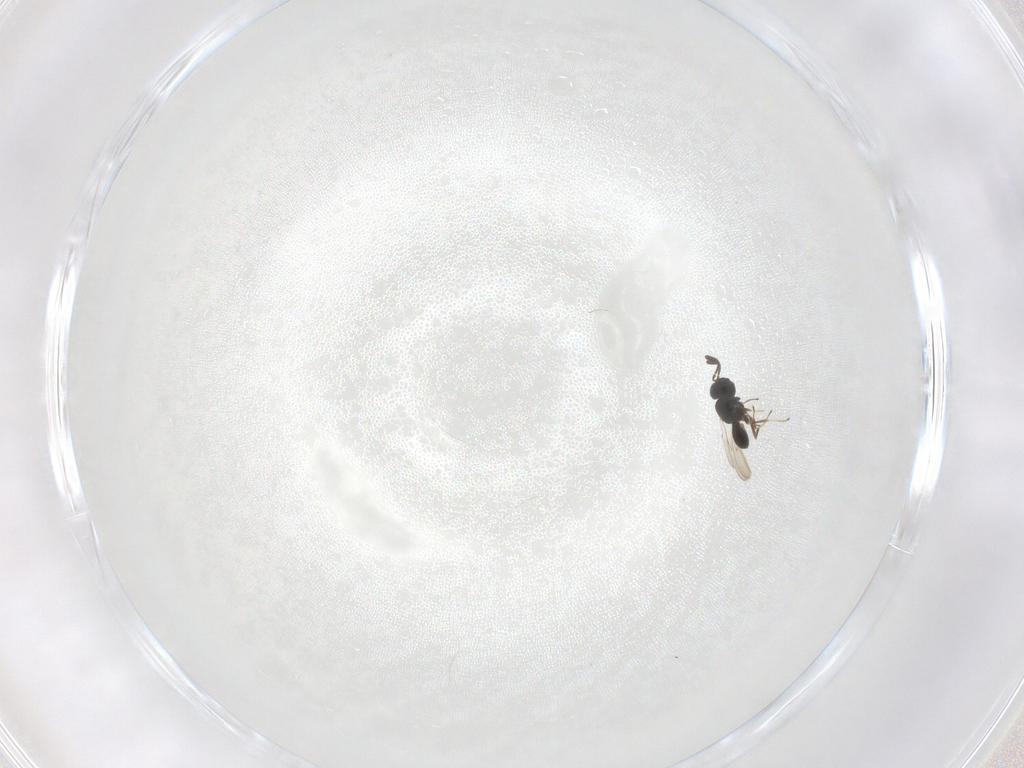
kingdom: Animalia
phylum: Arthropoda
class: Insecta
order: Hymenoptera
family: Scelionidae
